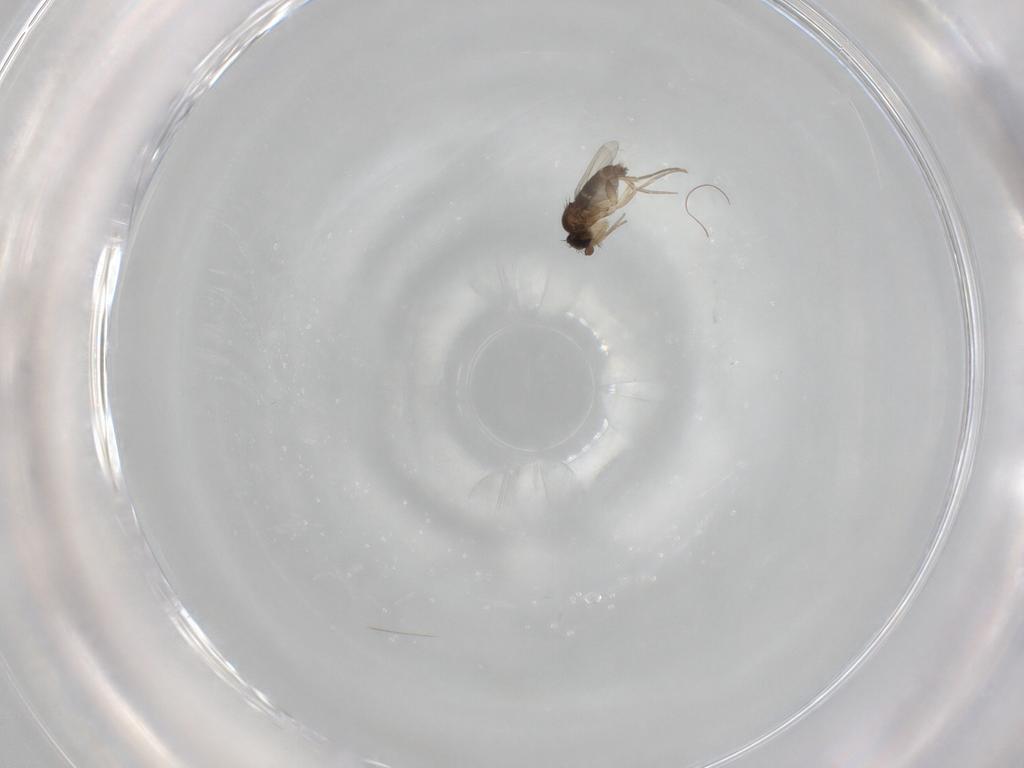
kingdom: Animalia
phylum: Arthropoda
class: Insecta
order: Diptera
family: Phoridae
